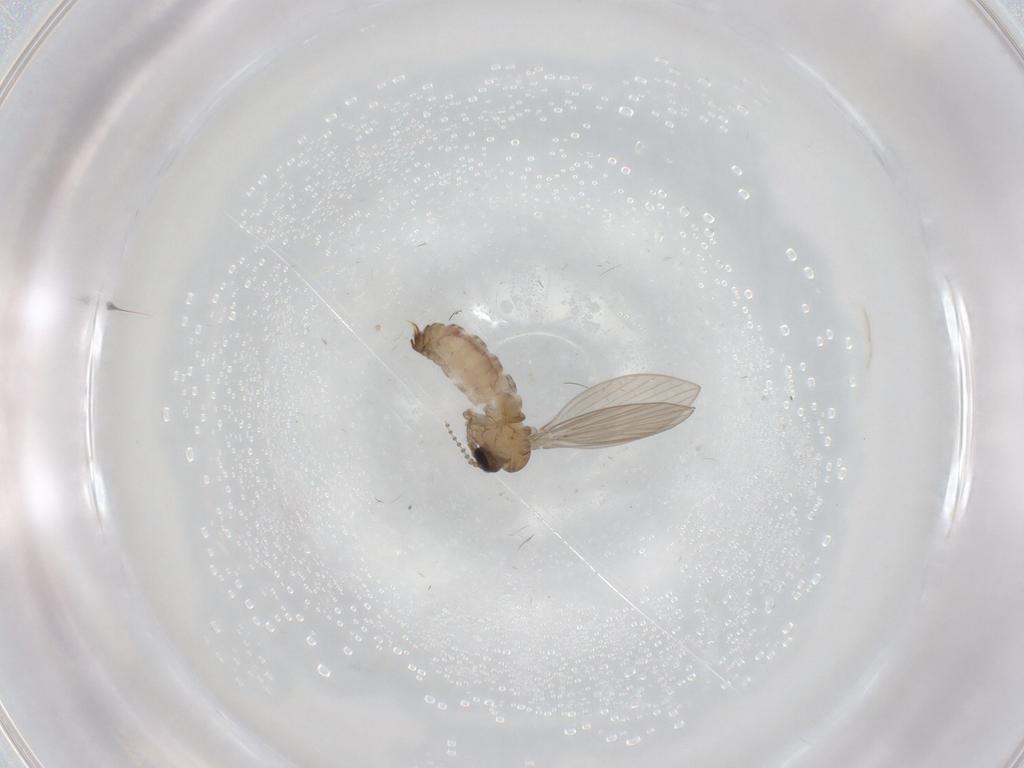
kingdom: Animalia
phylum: Arthropoda
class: Insecta
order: Diptera
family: Psychodidae
